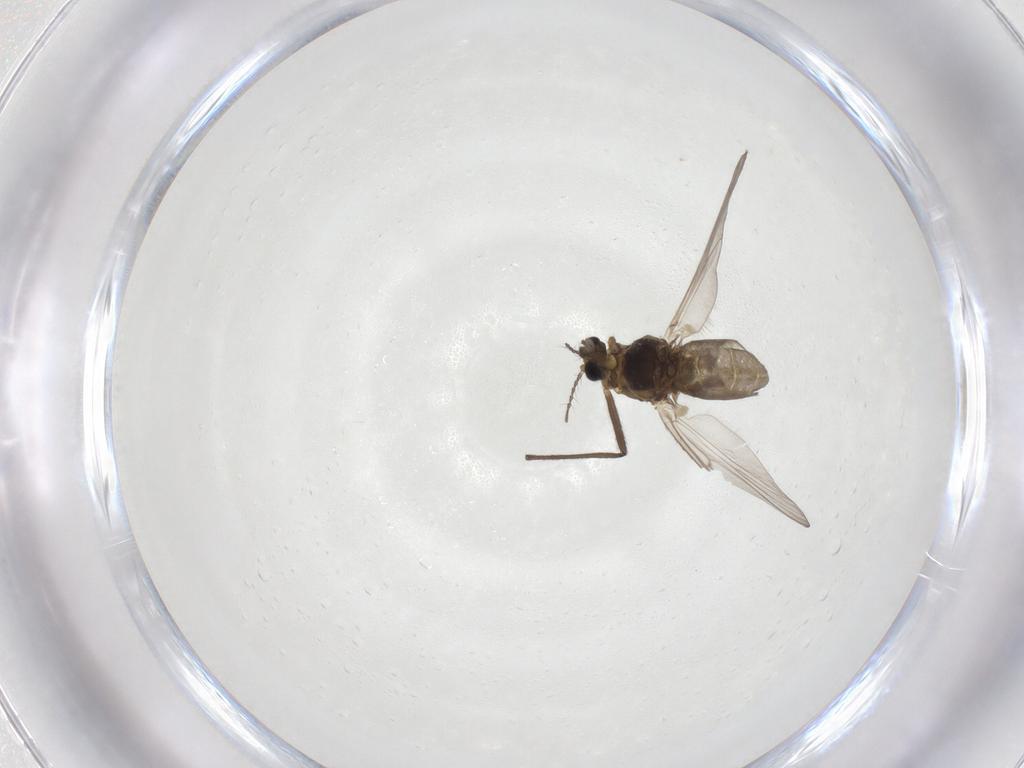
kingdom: Animalia
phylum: Arthropoda
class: Insecta
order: Diptera
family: Chironomidae
